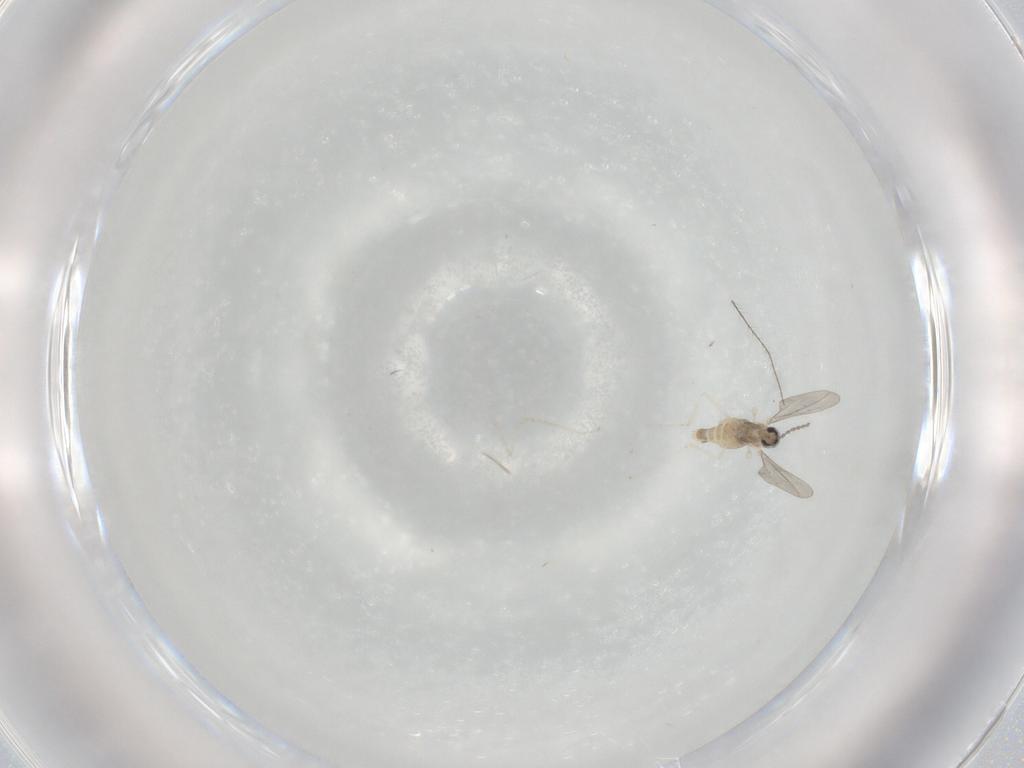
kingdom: Animalia
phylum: Arthropoda
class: Insecta
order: Diptera
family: Cecidomyiidae
